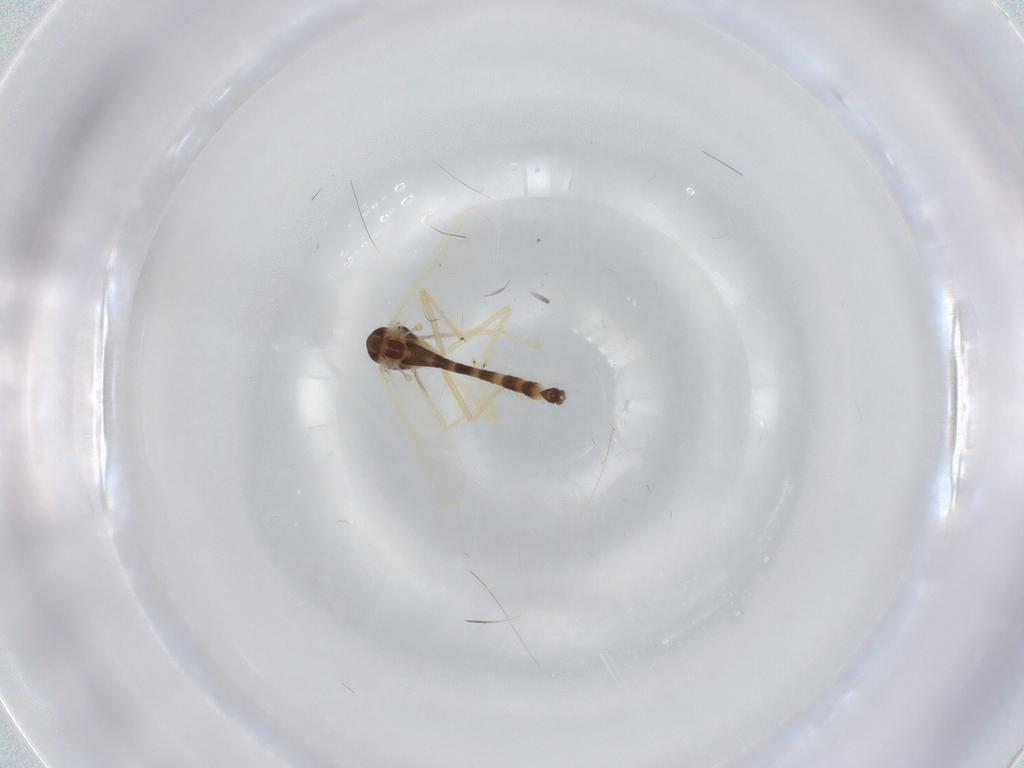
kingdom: Animalia
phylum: Arthropoda
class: Insecta
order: Diptera
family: Chironomidae
